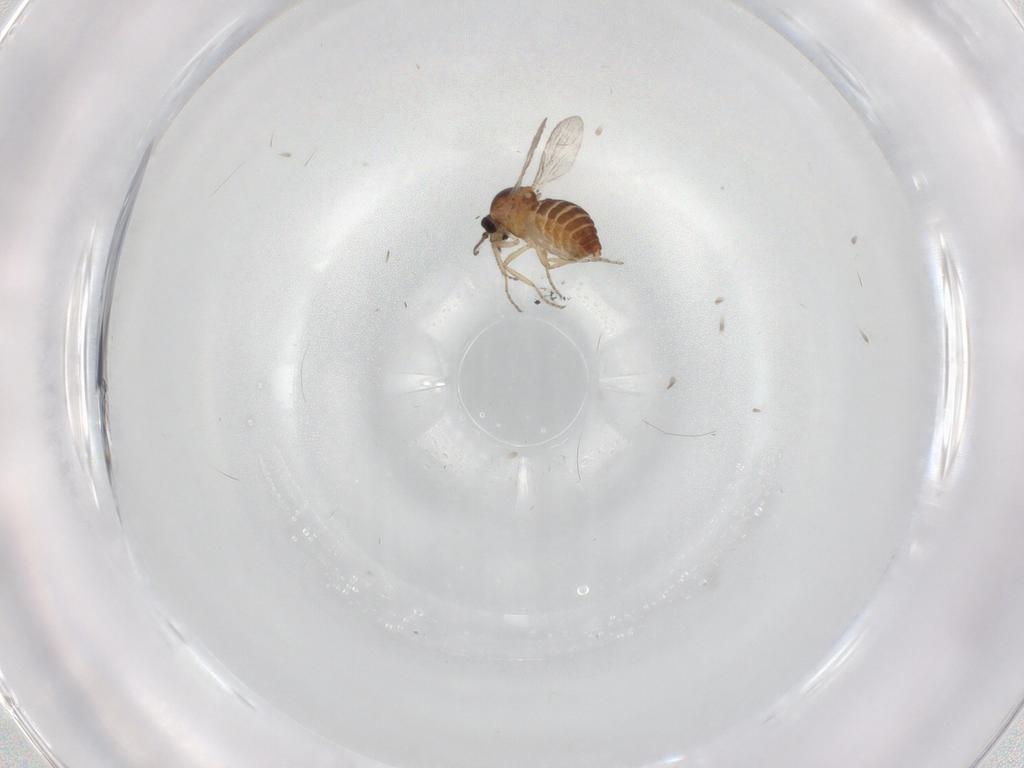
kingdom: Animalia
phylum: Arthropoda
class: Insecta
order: Diptera
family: Ceratopogonidae
